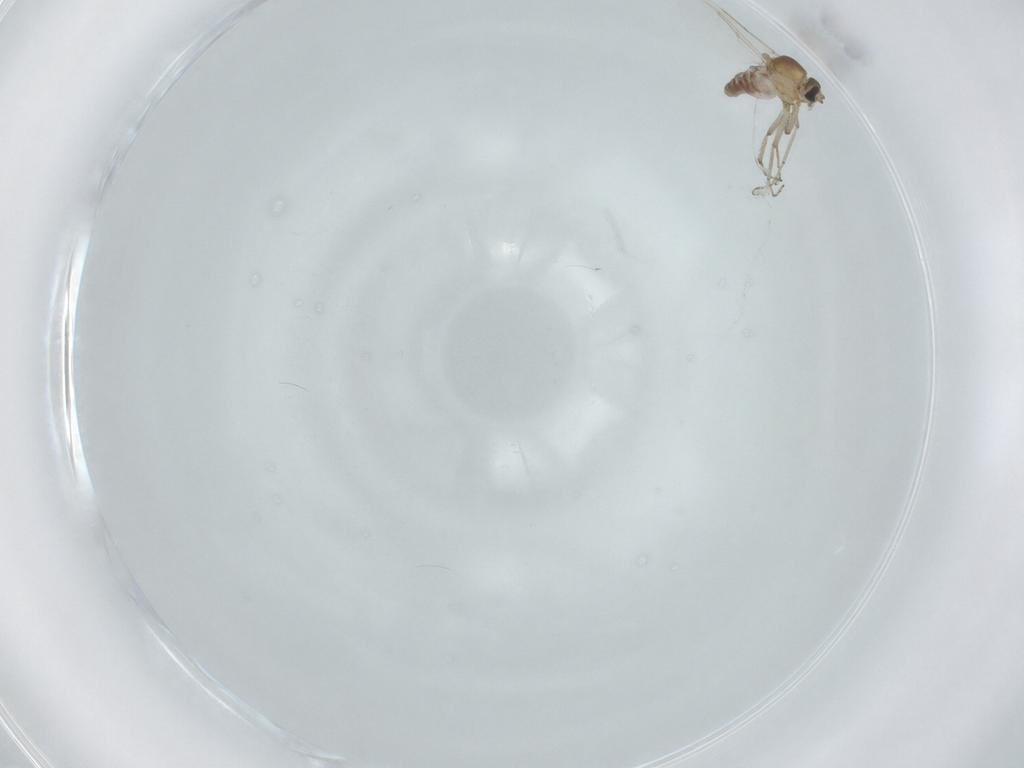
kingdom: Animalia
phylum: Arthropoda
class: Insecta
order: Diptera
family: Ceratopogonidae
